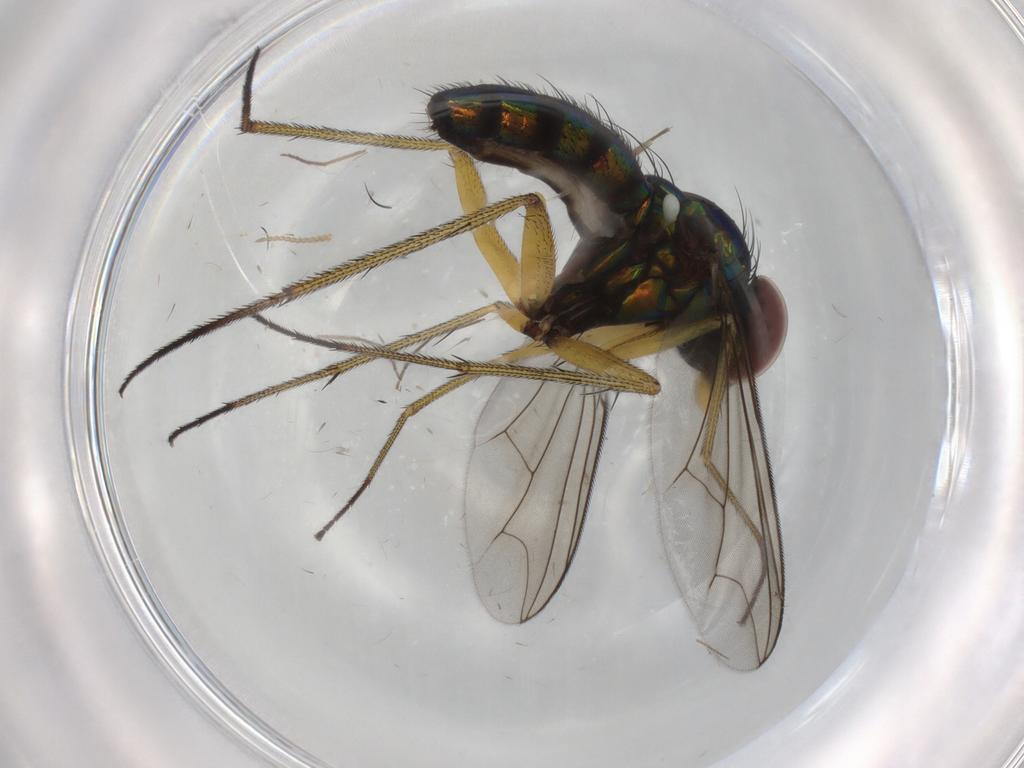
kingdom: Animalia
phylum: Arthropoda
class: Insecta
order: Diptera
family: Dolichopodidae
